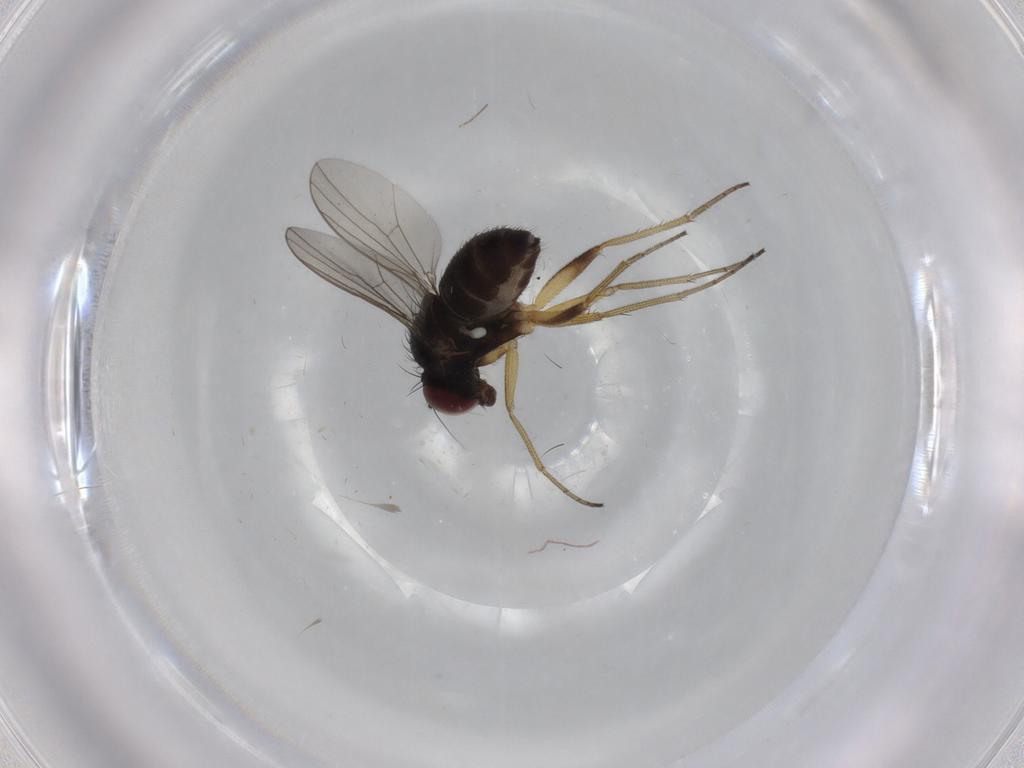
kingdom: Animalia
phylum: Arthropoda
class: Insecta
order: Diptera
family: Dolichopodidae
